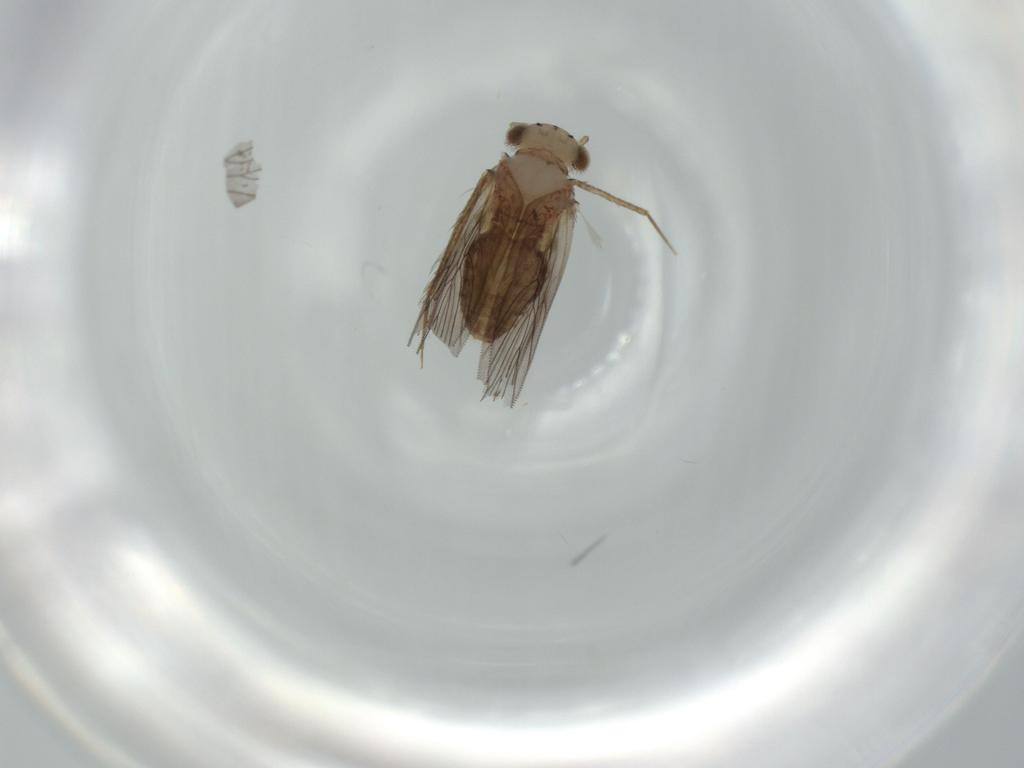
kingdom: Animalia
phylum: Arthropoda
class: Insecta
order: Psocodea
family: Lepidopsocidae
